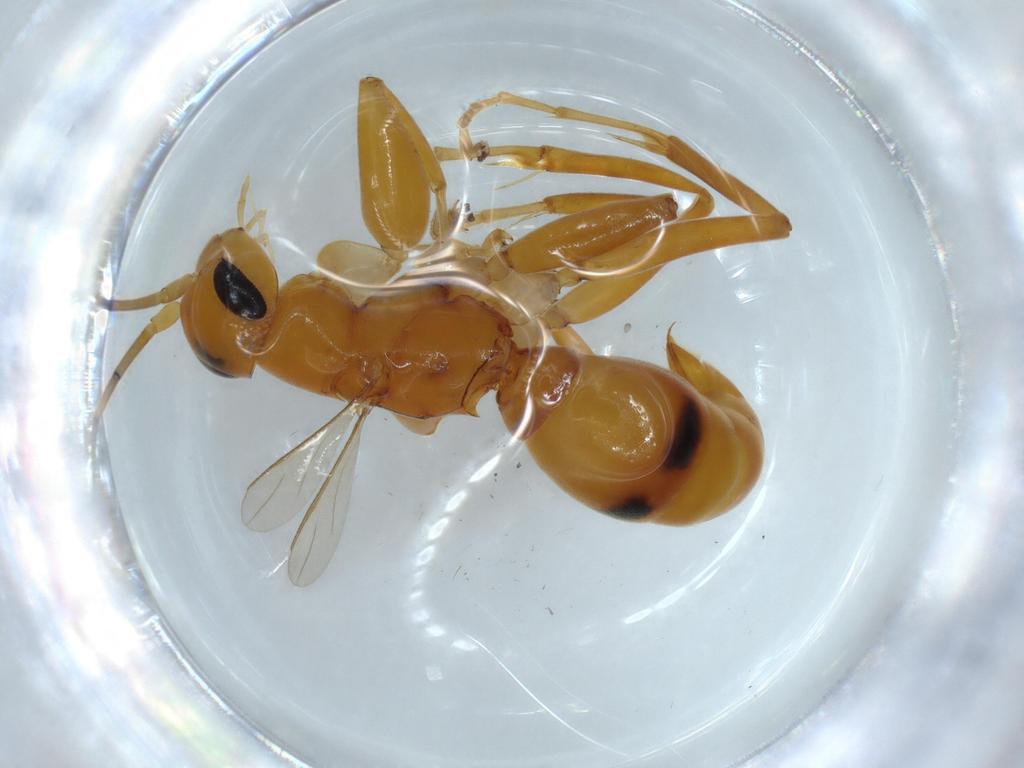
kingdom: Animalia
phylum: Arthropoda
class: Insecta
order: Hymenoptera
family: Rhopalosomatidae
